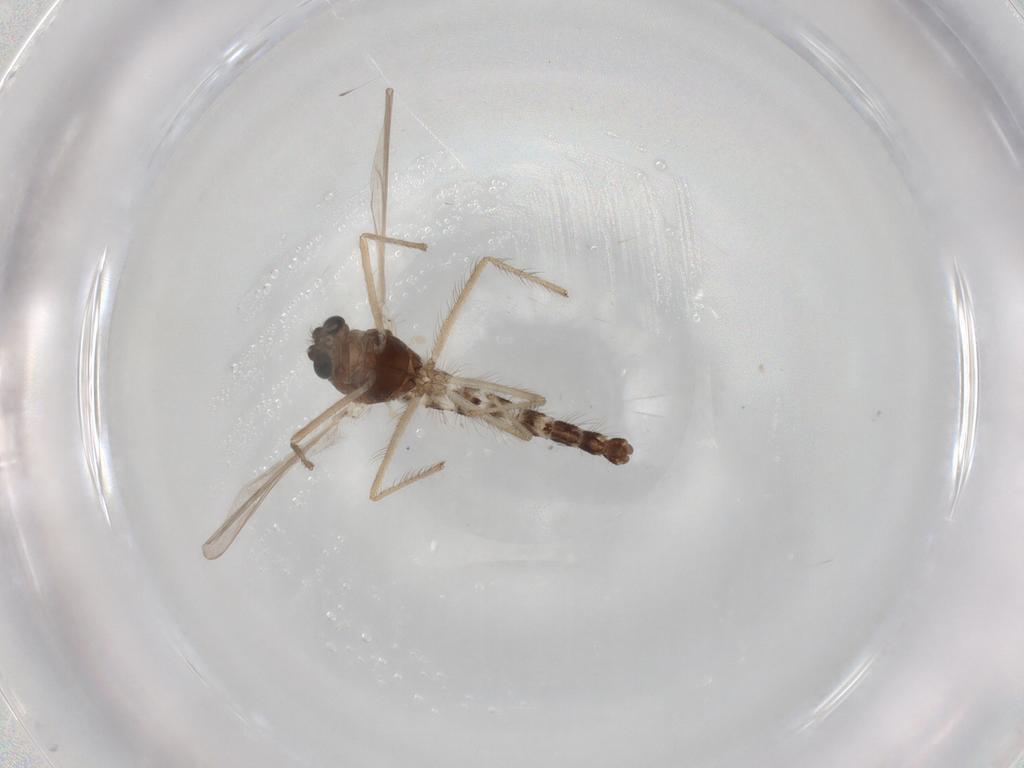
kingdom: Animalia
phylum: Arthropoda
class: Insecta
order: Diptera
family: Chironomidae
